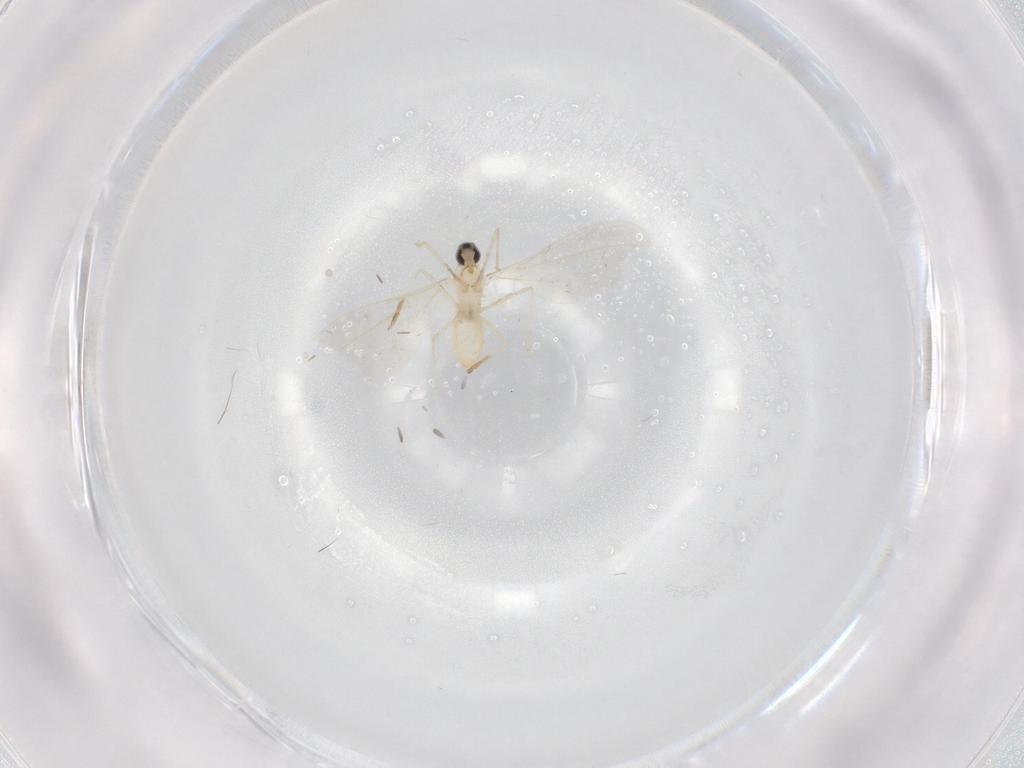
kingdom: Animalia
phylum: Arthropoda
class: Insecta
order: Diptera
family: Cecidomyiidae
